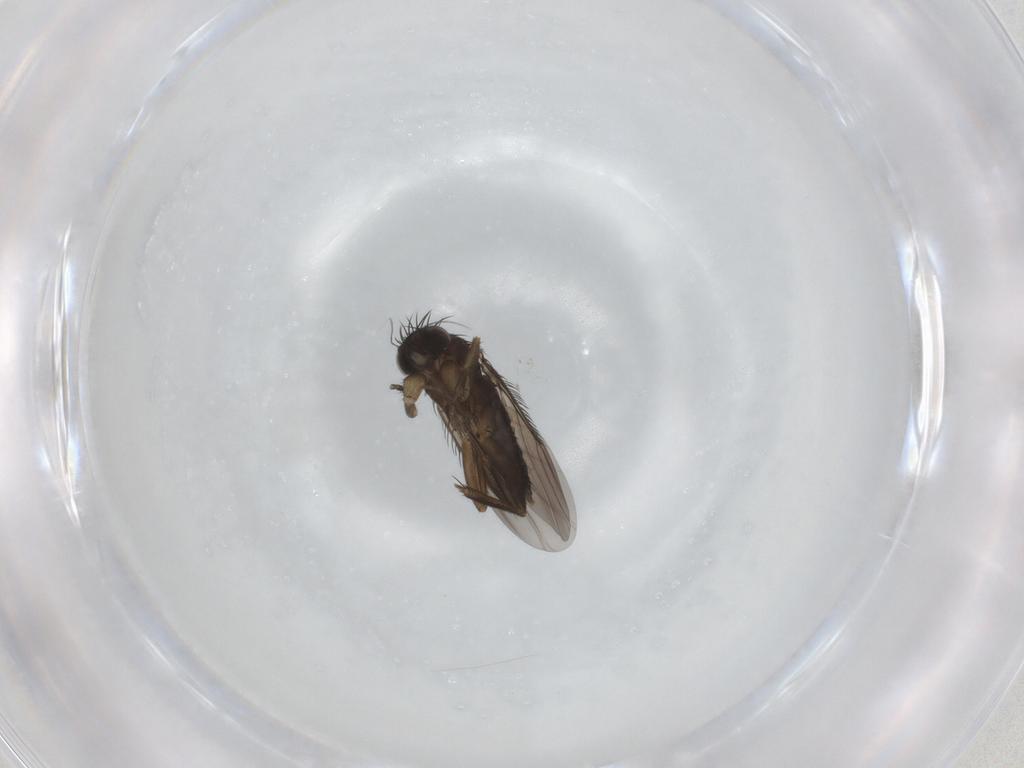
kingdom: Animalia
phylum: Arthropoda
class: Insecta
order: Diptera
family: Phoridae
